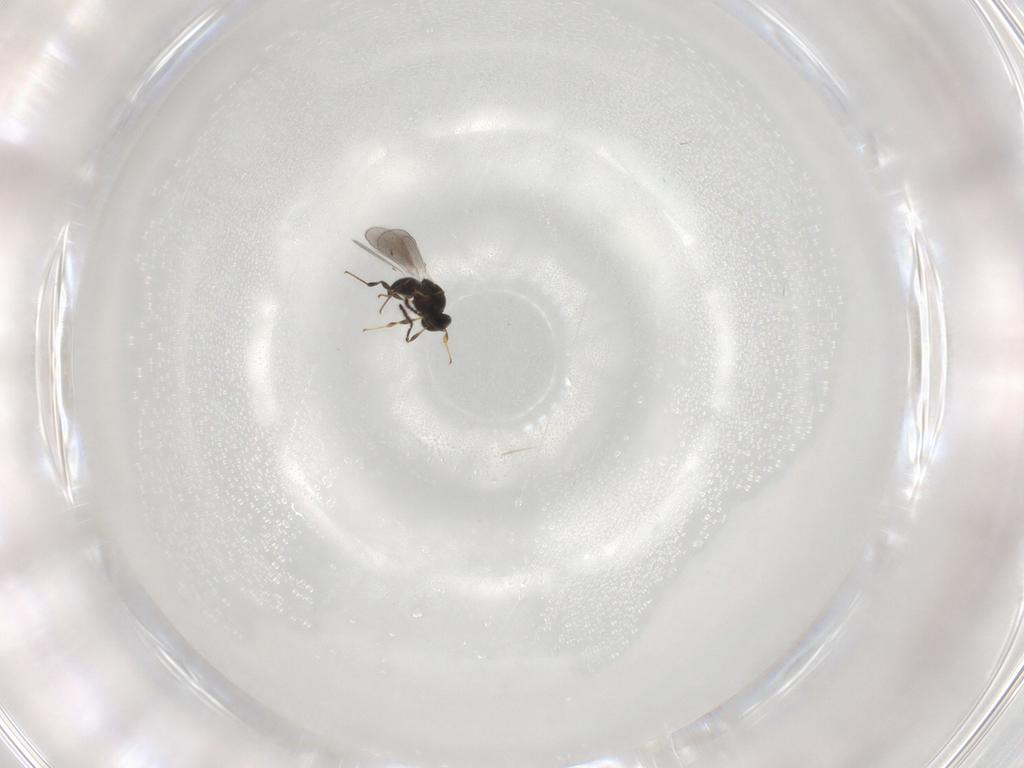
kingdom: Animalia
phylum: Arthropoda
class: Insecta
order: Hymenoptera
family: Platygastridae
